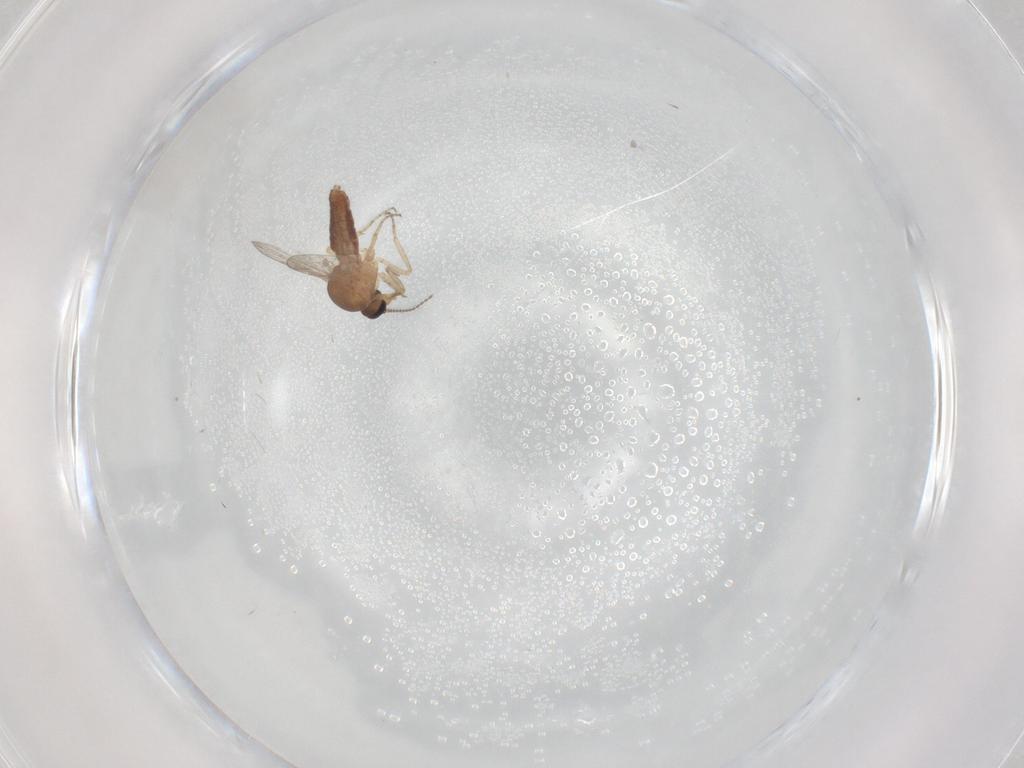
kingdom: Animalia
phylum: Arthropoda
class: Insecta
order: Diptera
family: Ceratopogonidae
